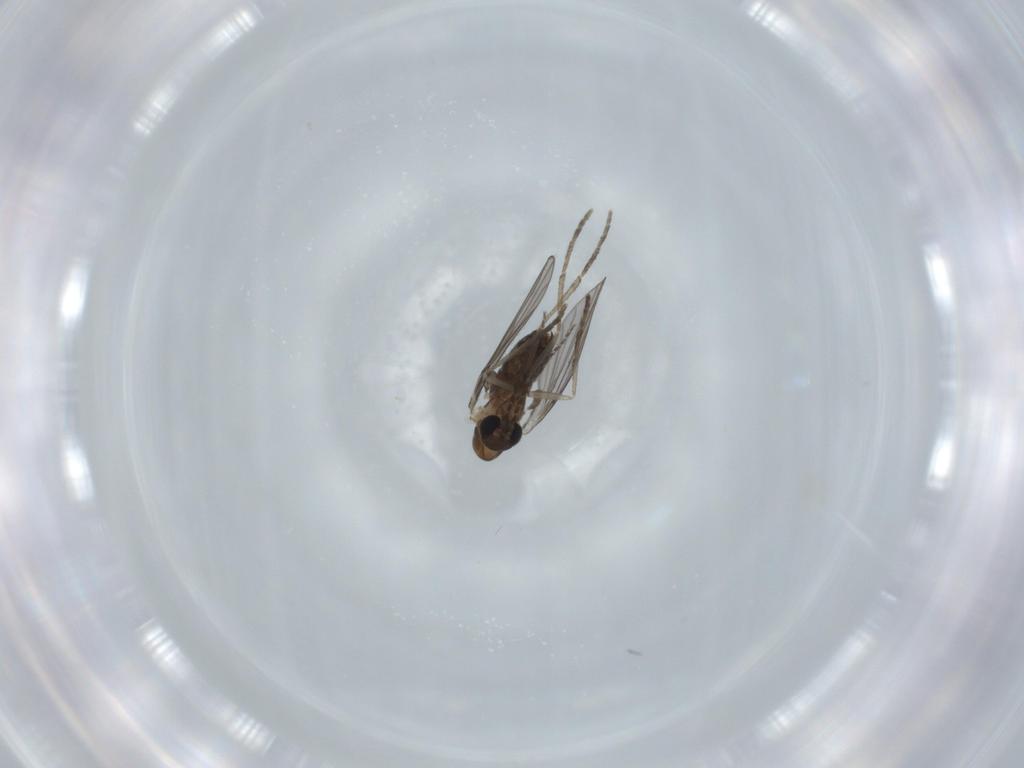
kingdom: Animalia
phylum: Arthropoda
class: Insecta
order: Diptera
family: Psychodidae
